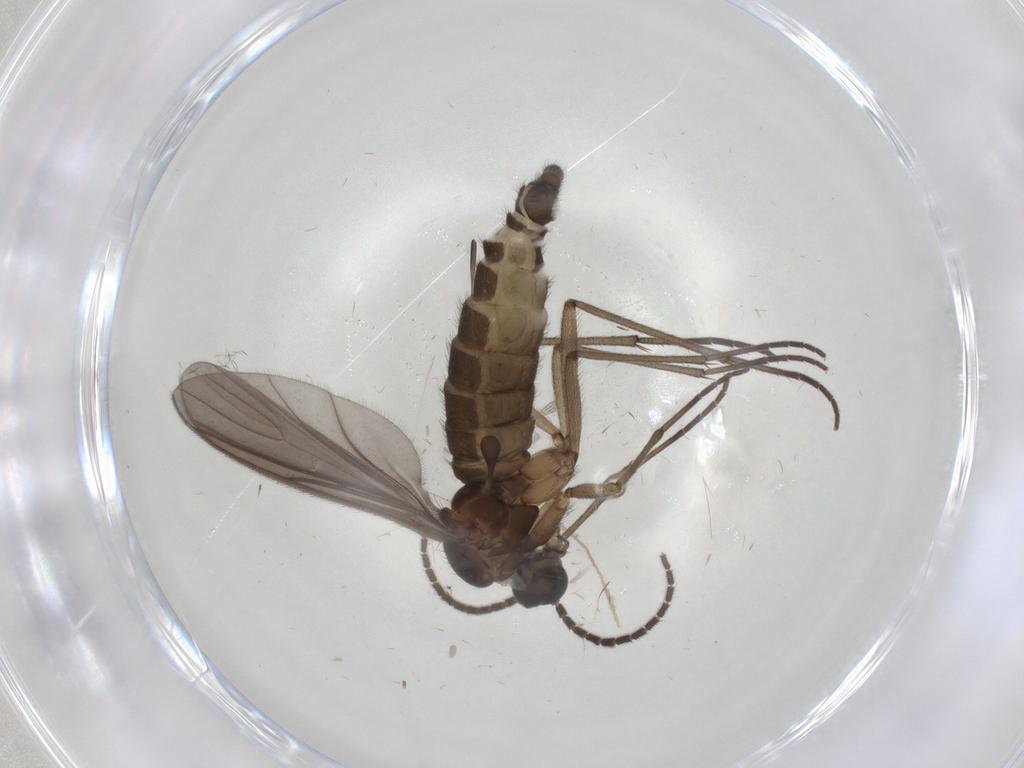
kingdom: Animalia
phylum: Arthropoda
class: Insecta
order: Diptera
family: Sciaridae
